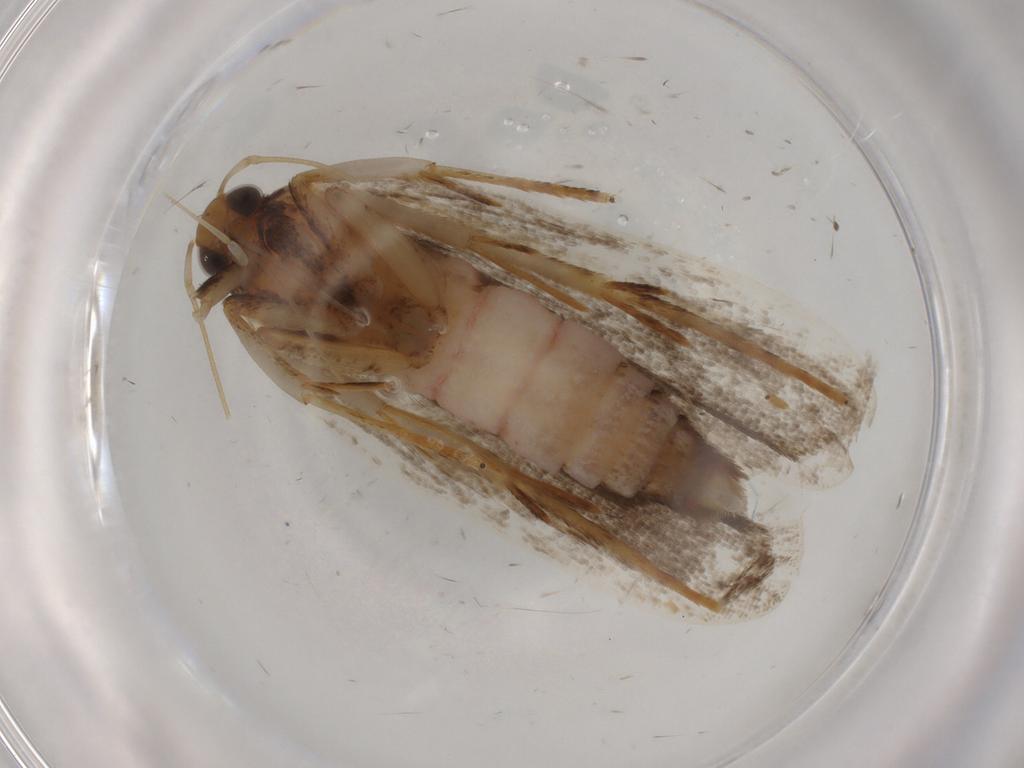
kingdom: Animalia
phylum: Arthropoda
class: Insecta
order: Lepidoptera
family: Autostichidae
